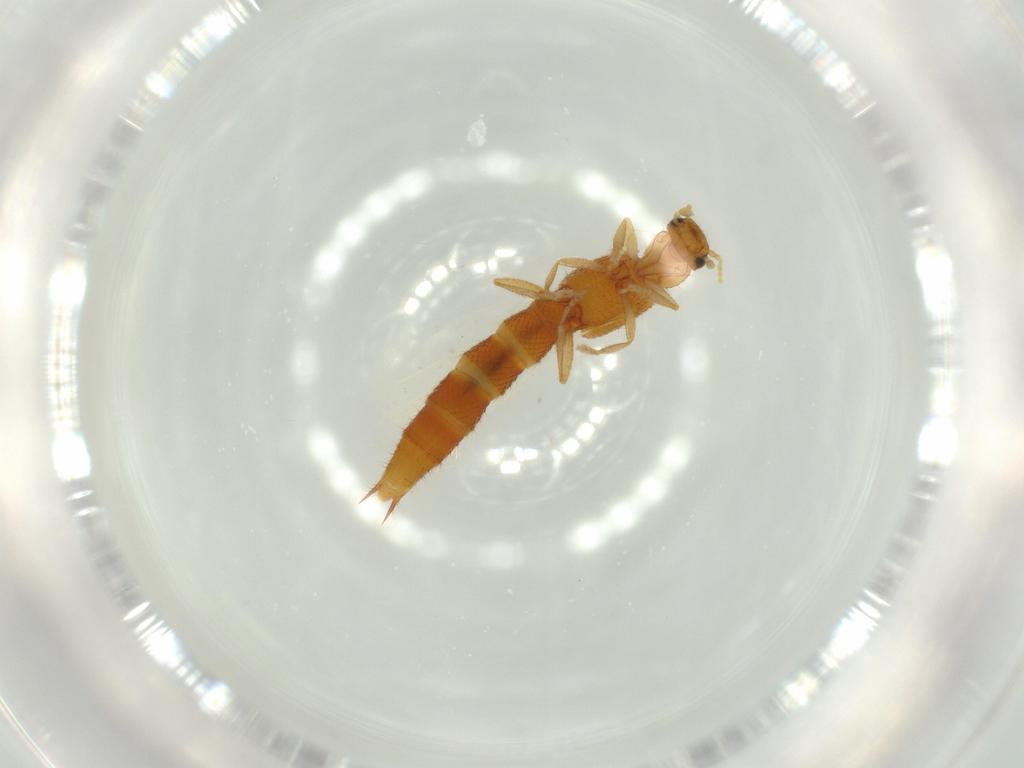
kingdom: Animalia
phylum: Arthropoda
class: Insecta
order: Coleoptera
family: Staphylinidae
